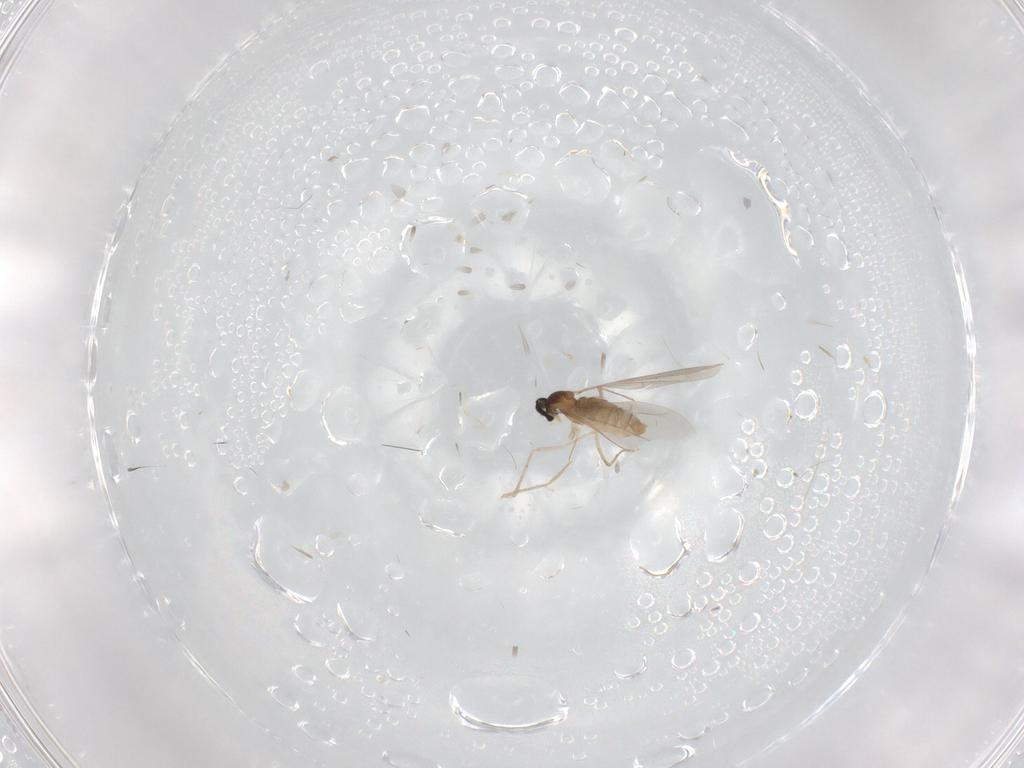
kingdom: Animalia
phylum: Arthropoda
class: Insecta
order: Diptera
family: Cecidomyiidae
